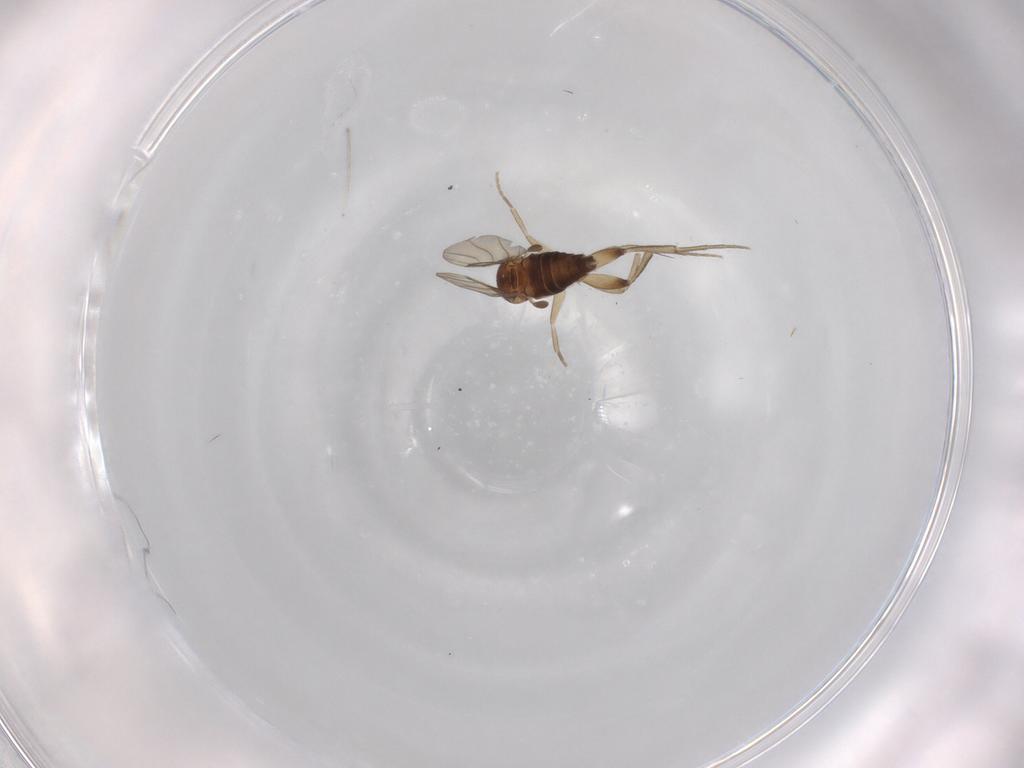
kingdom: Animalia
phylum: Arthropoda
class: Insecta
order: Diptera
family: Phoridae
